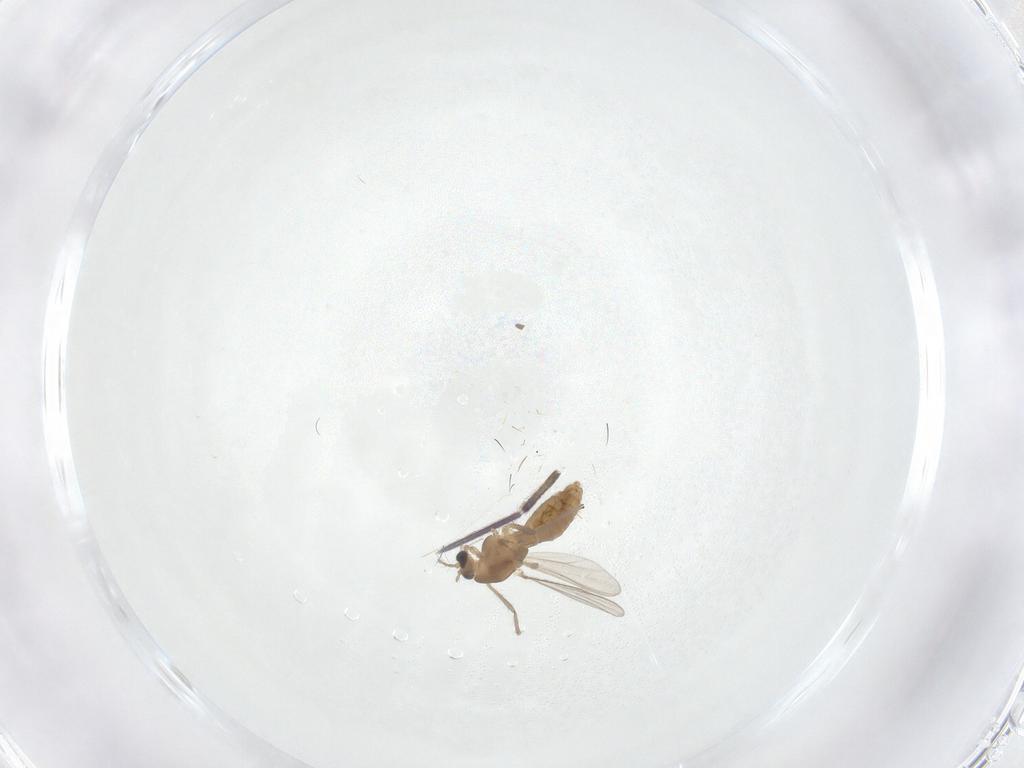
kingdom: Animalia
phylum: Arthropoda
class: Insecta
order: Diptera
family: Chironomidae
